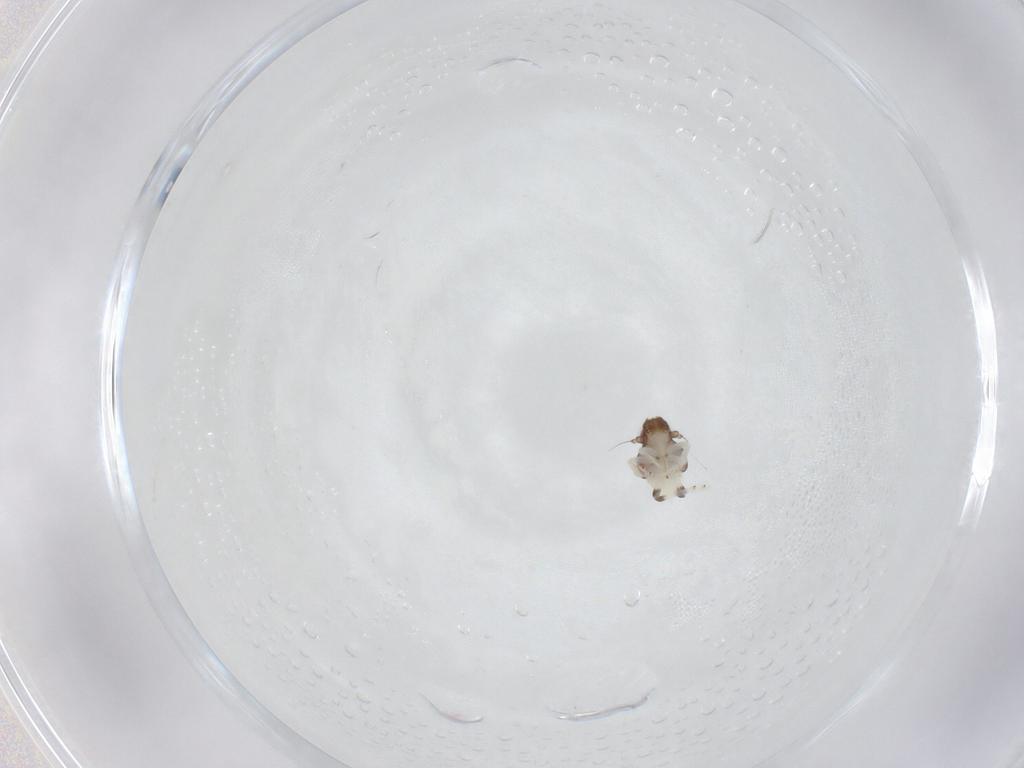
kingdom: Animalia
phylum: Arthropoda
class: Insecta
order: Hemiptera
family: Nogodinidae
